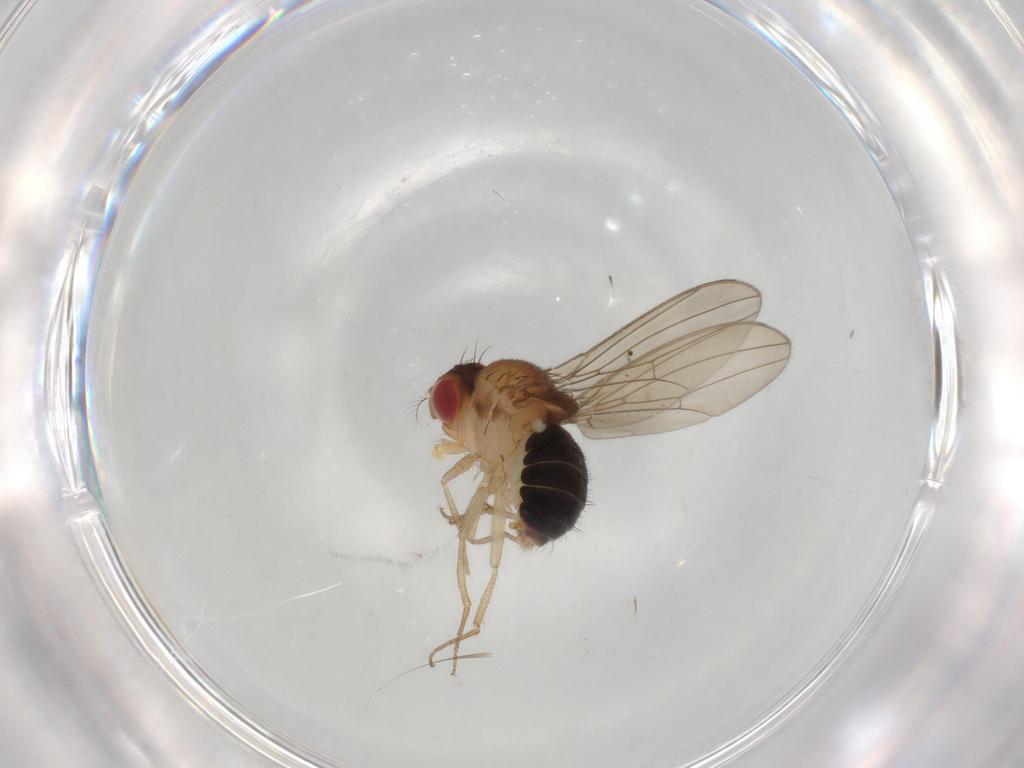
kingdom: Animalia
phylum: Arthropoda
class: Insecta
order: Diptera
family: Drosophilidae
